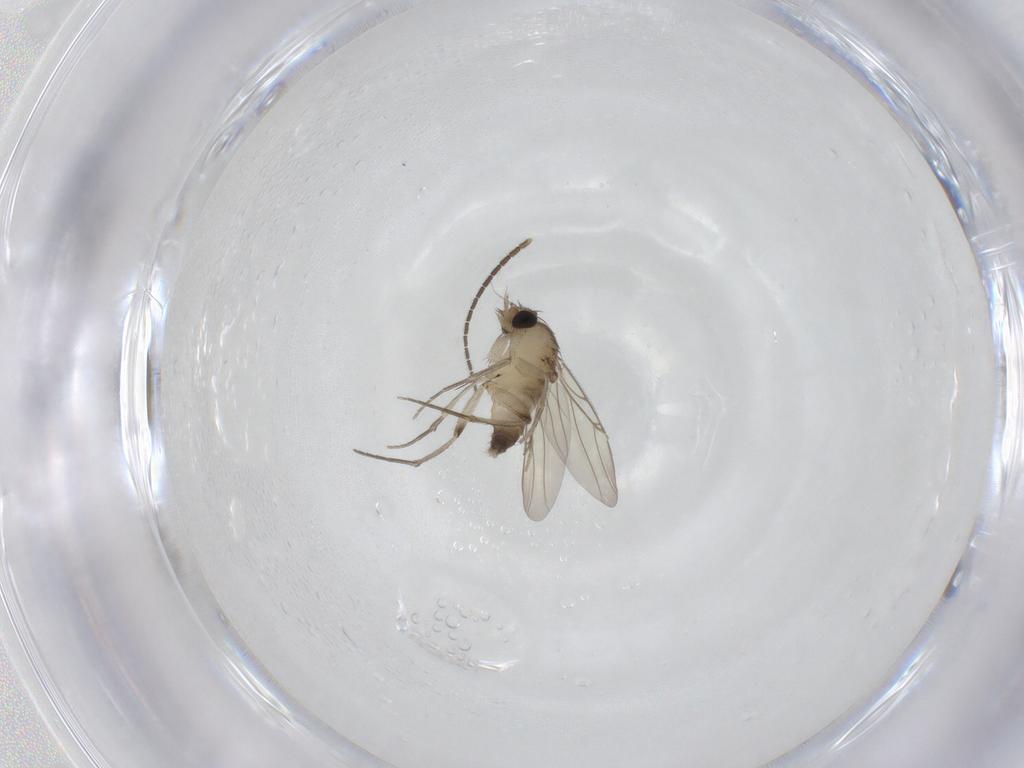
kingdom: Animalia
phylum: Arthropoda
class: Insecta
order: Diptera
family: Phoridae
